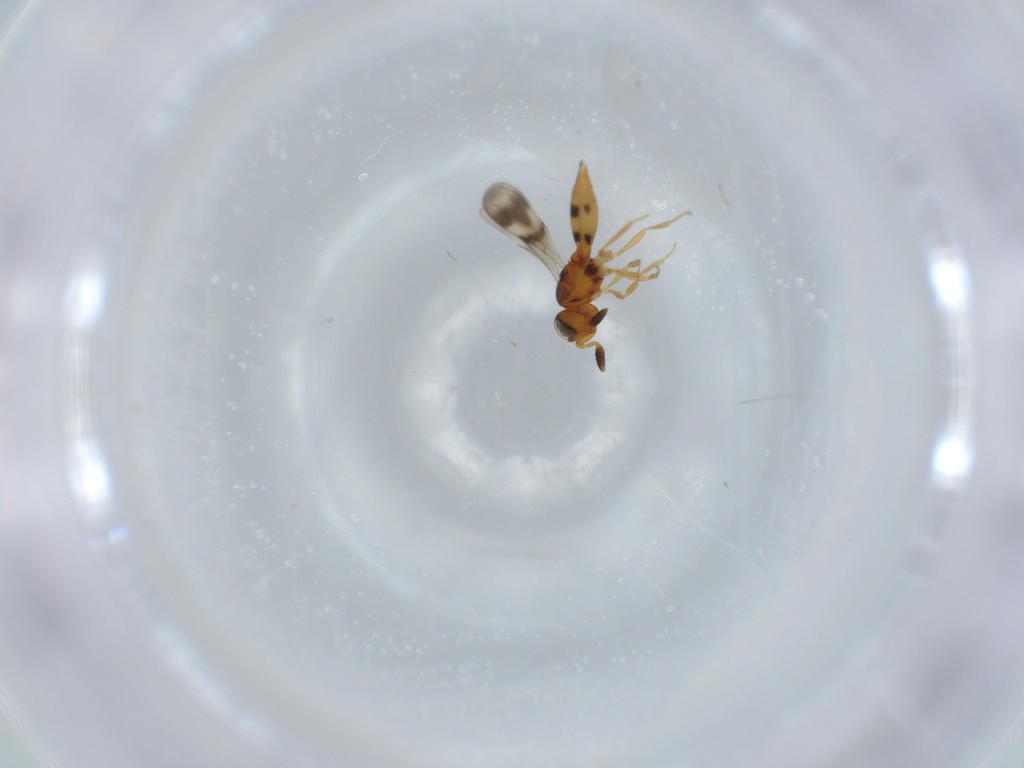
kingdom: Animalia
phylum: Arthropoda
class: Insecta
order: Hymenoptera
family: Scelionidae
